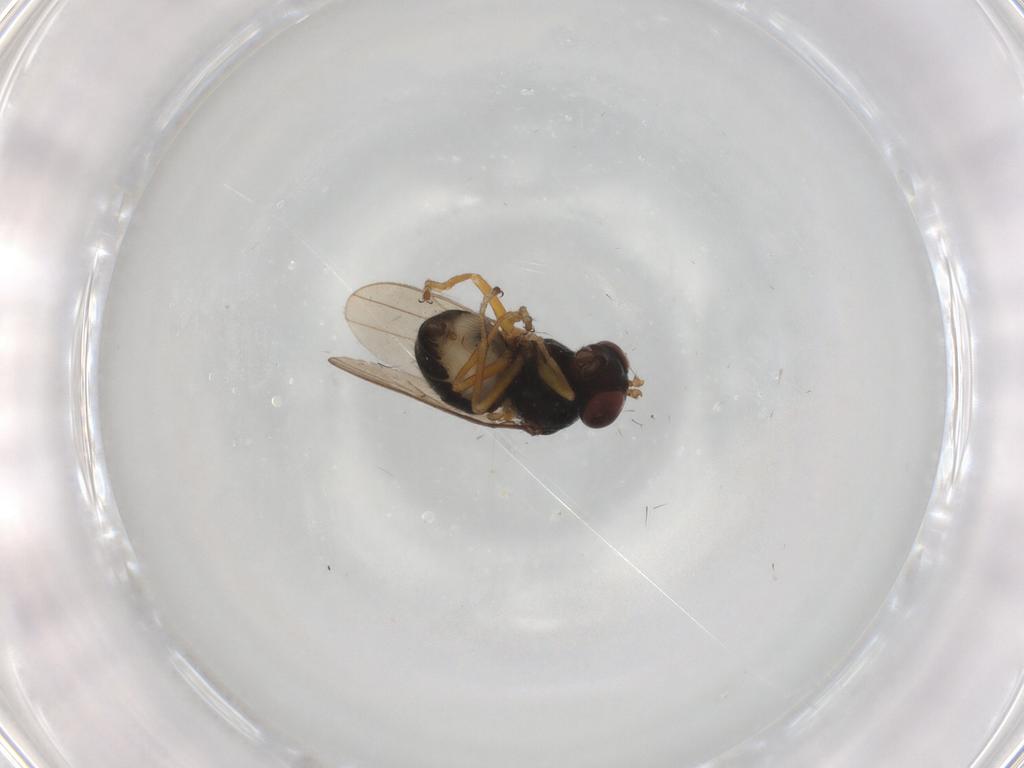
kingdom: Animalia
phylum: Arthropoda
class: Insecta
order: Diptera
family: Ephydridae
